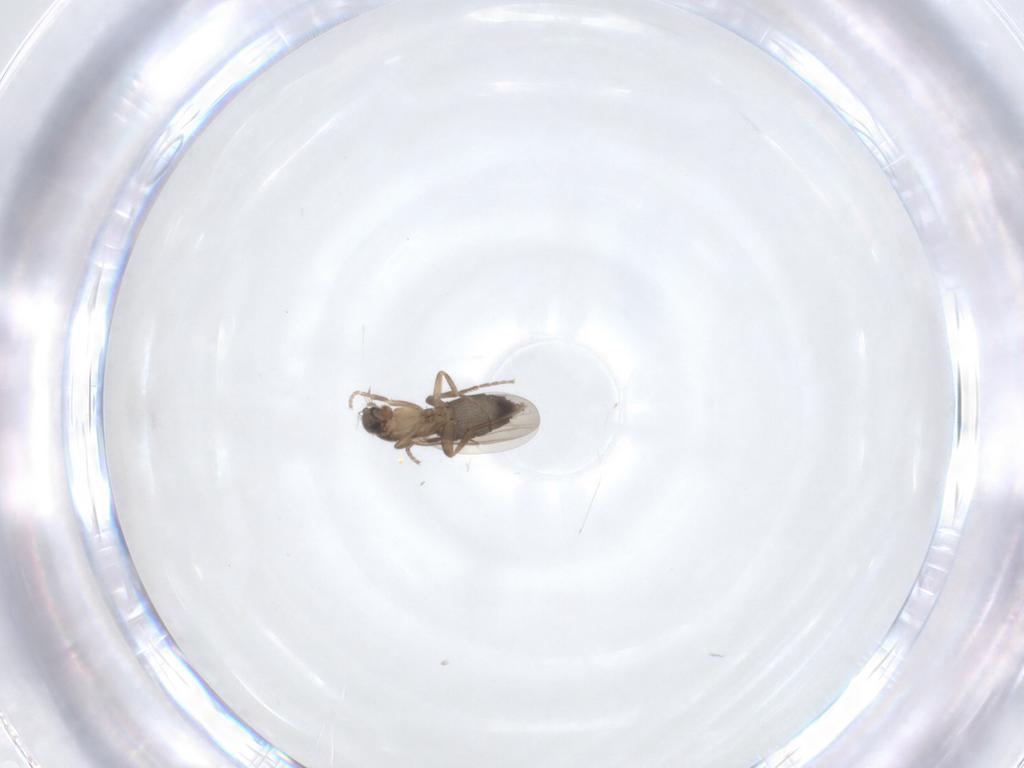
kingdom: Animalia
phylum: Arthropoda
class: Insecta
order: Diptera
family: Phoridae
